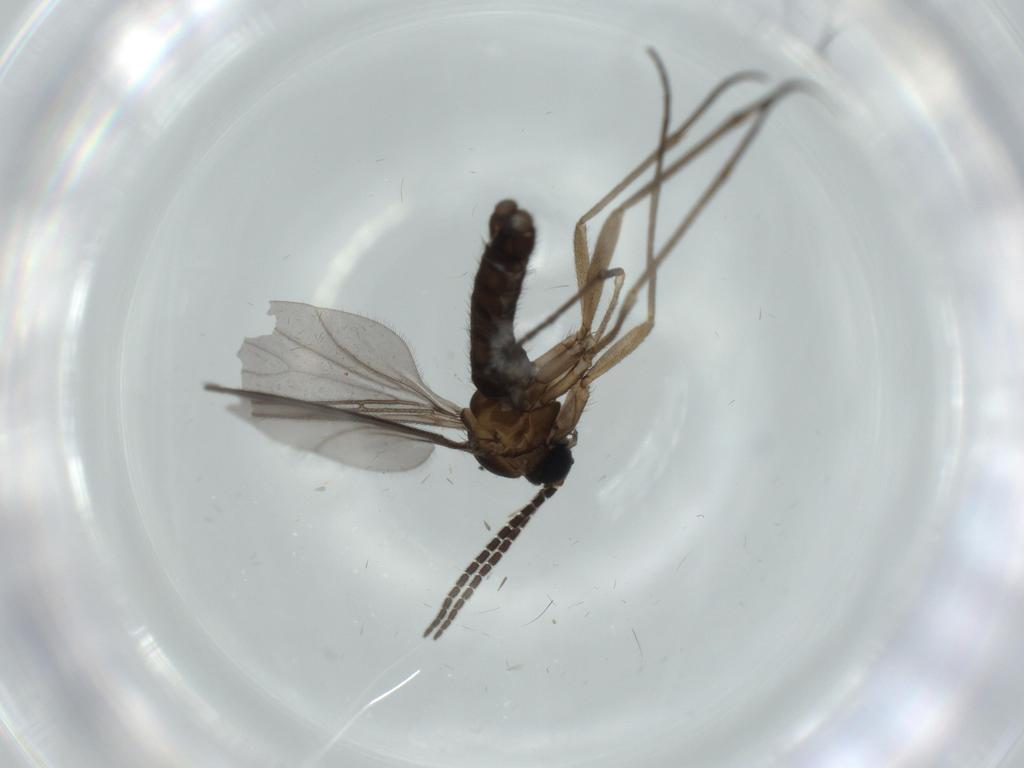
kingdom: Animalia
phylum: Arthropoda
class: Insecta
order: Diptera
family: Sciaridae
